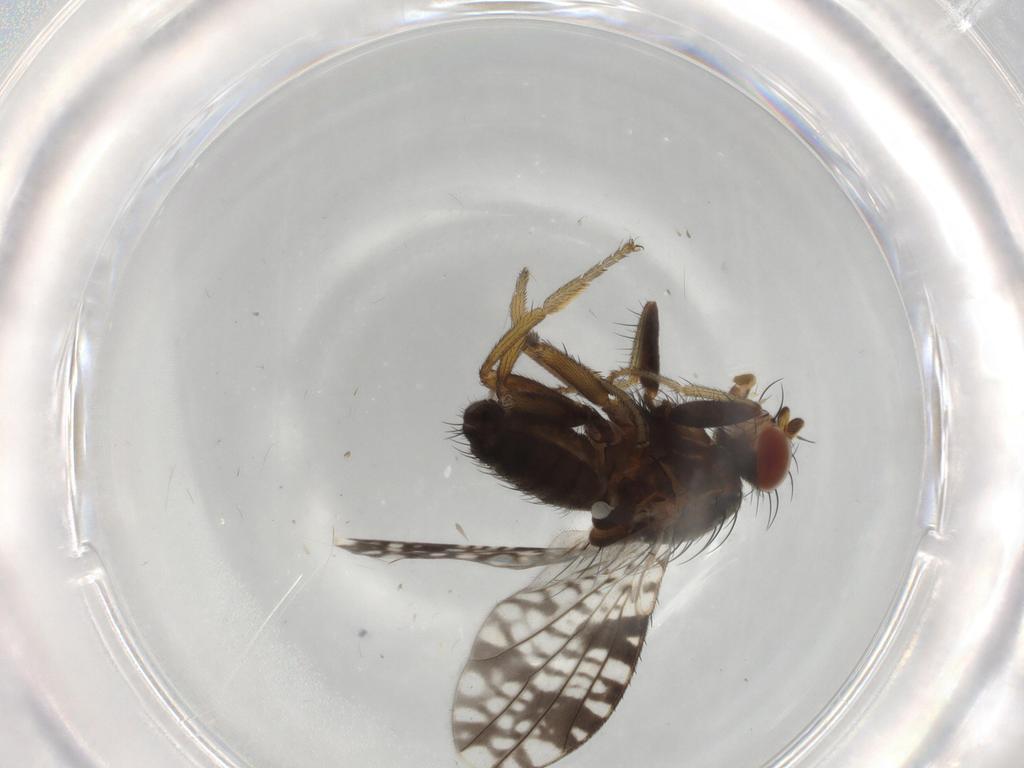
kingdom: Animalia
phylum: Arthropoda
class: Insecta
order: Diptera
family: Tephritidae
